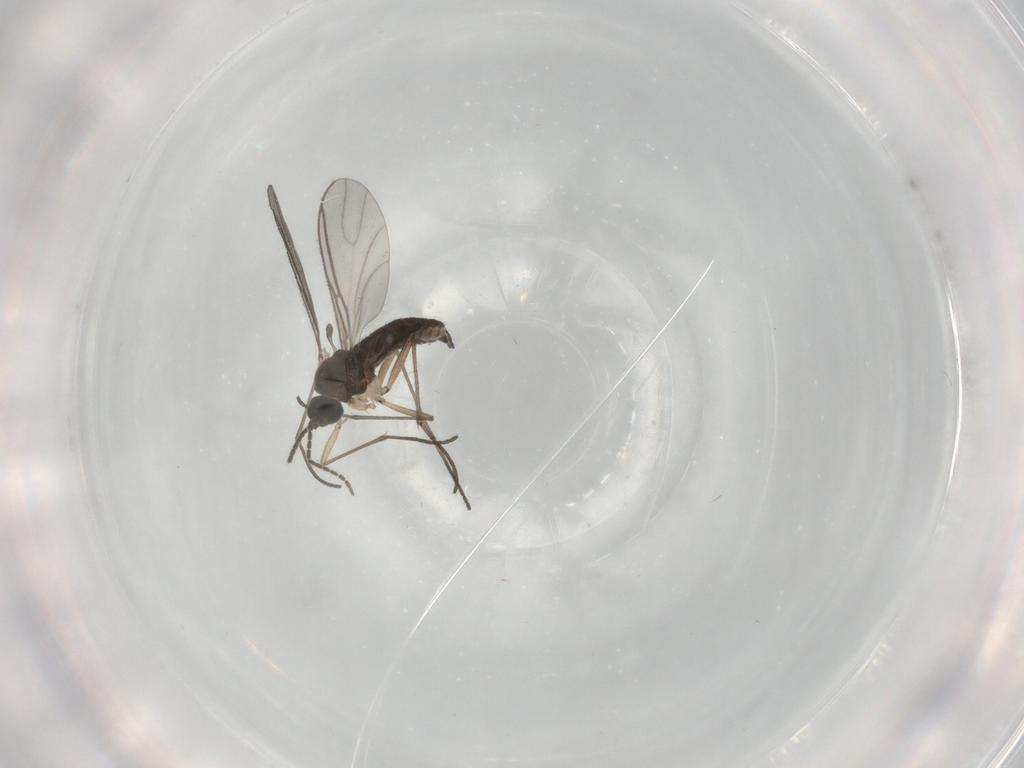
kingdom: Animalia
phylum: Arthropoda
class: Insecta
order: Diptera
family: Sciaridae
